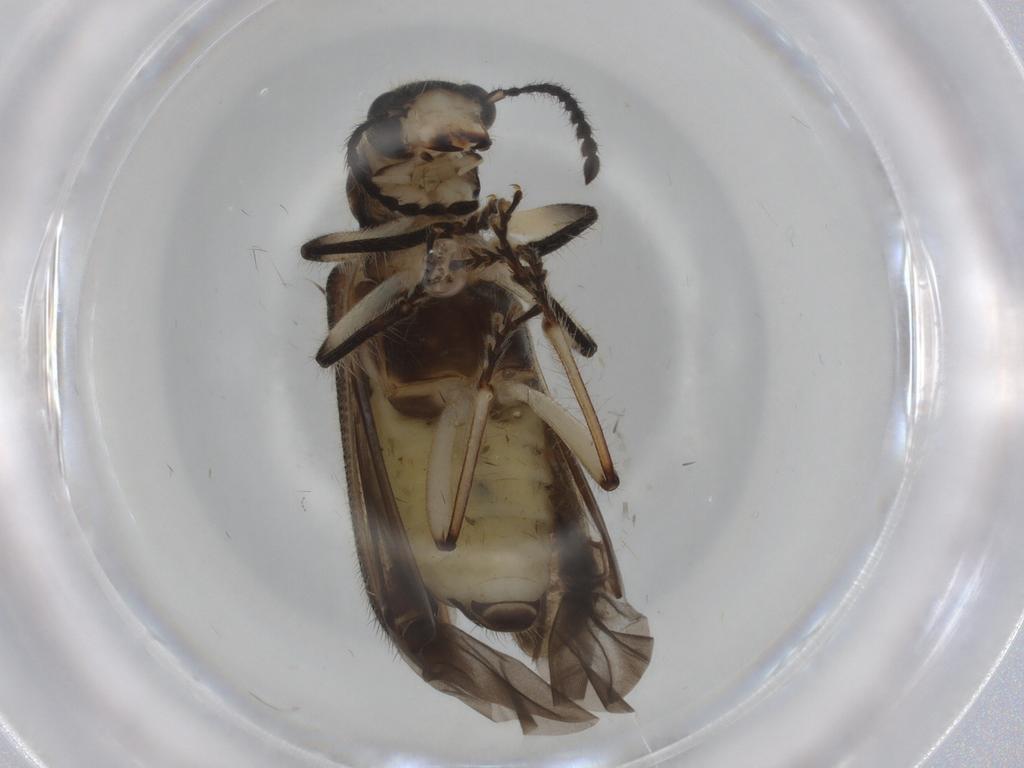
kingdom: Animalia
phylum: Arthropoda
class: Insecta
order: Coleoptera
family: Chrysomelidae
